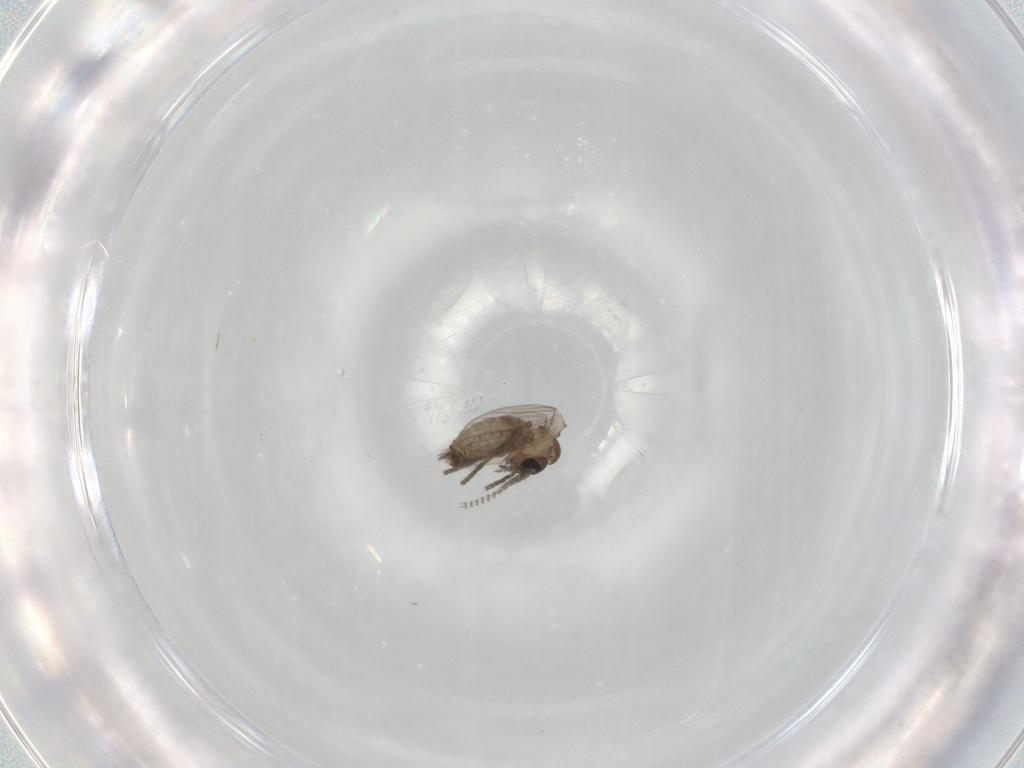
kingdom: Animalia
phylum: Arthropoda
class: Insecta
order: Diptera
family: Psychodidae
